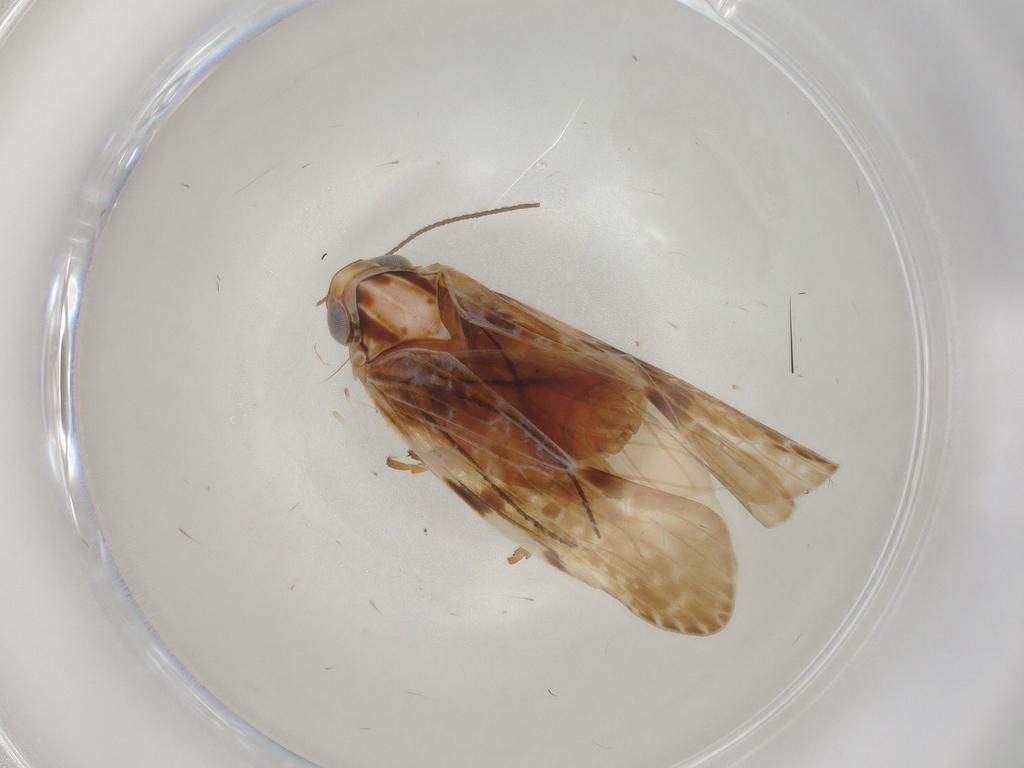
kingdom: Animalia
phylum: Arthropoda
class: Insecta
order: Hemiptera
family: Achilidae
